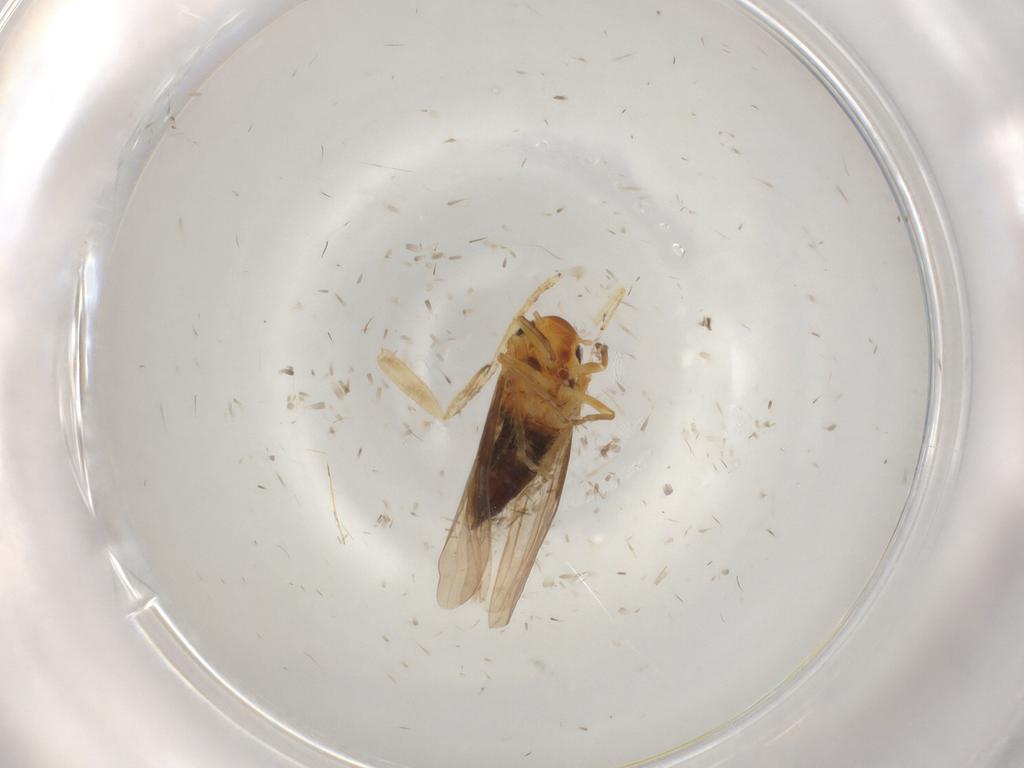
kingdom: Animalia
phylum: Arthropoda
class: Insecta
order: Hemiptera
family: Cicadellidae
